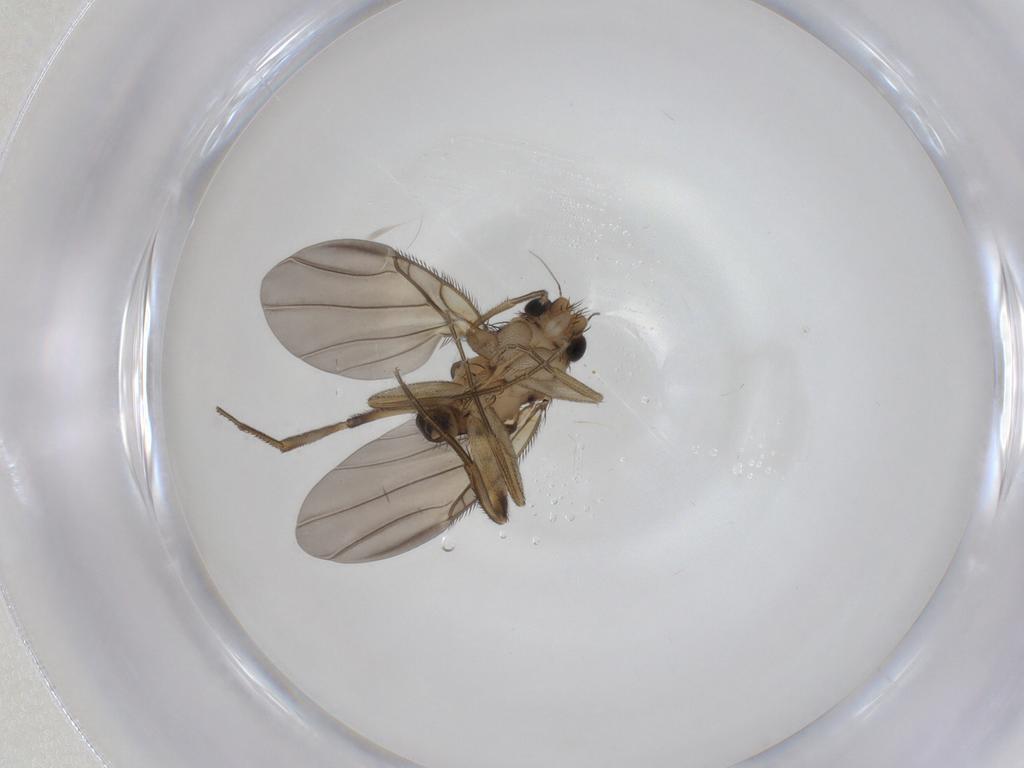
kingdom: Animalia
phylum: Arthropoda
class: Insecta
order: Diptera
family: Phoridae
